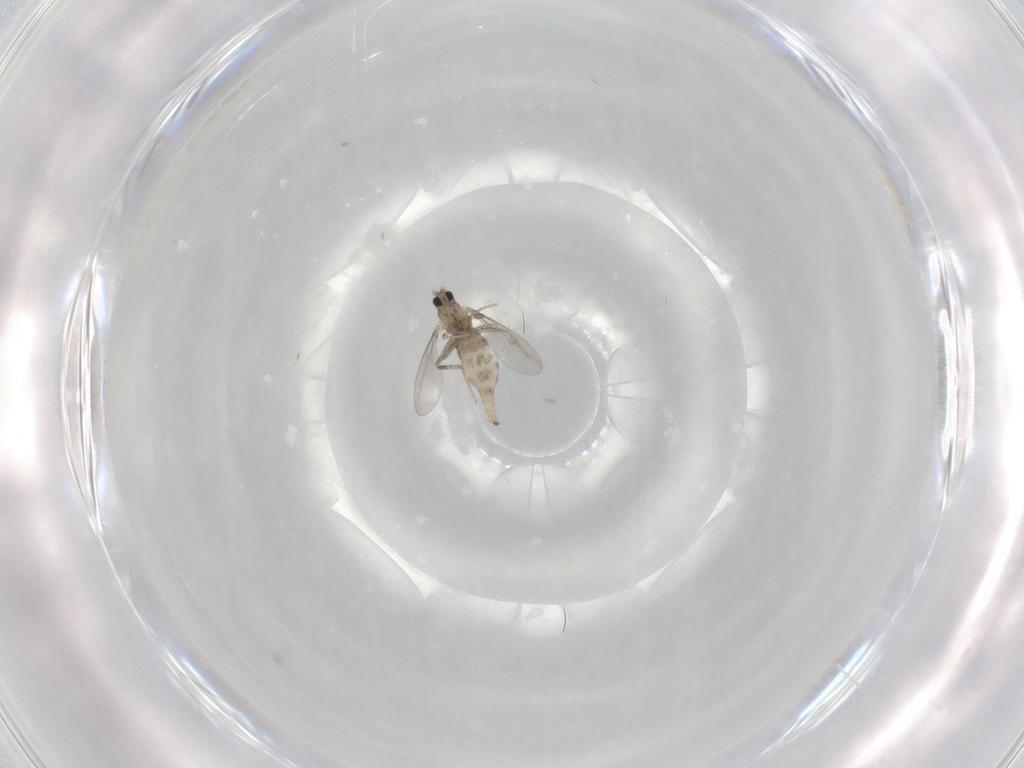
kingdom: Animalia
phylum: Arthropoda
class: Insecta
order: Diptera
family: Cecidomyiidae
